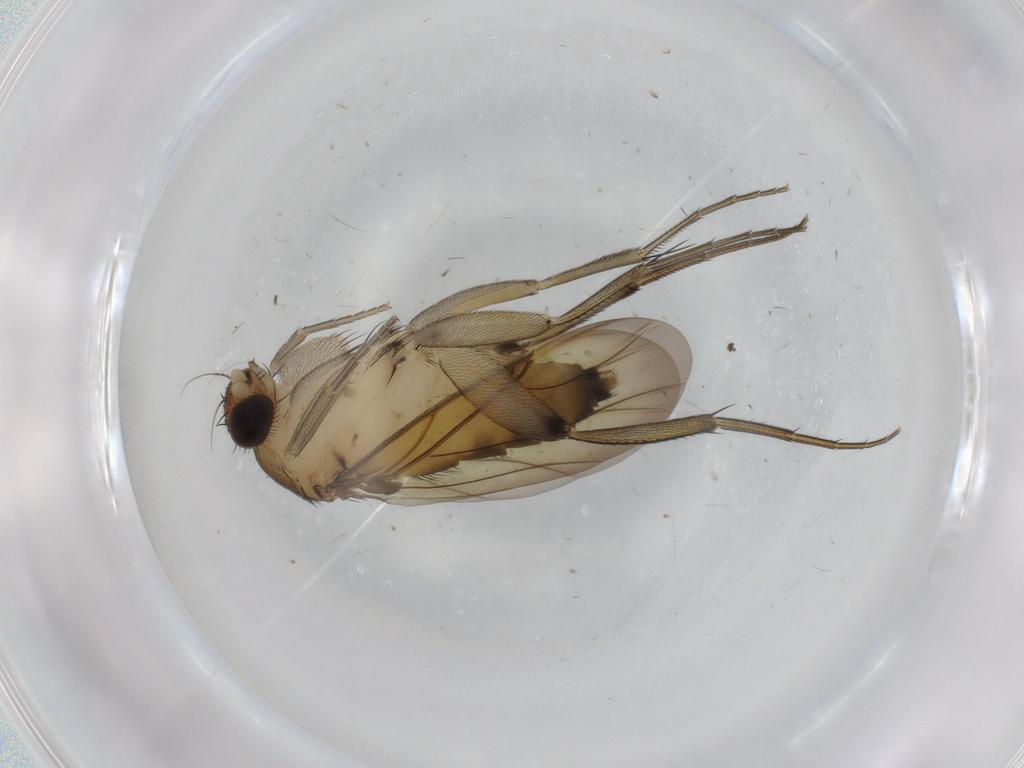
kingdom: Animalia
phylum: Arthropoda
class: Insecta
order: Diptera
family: Phoridae
